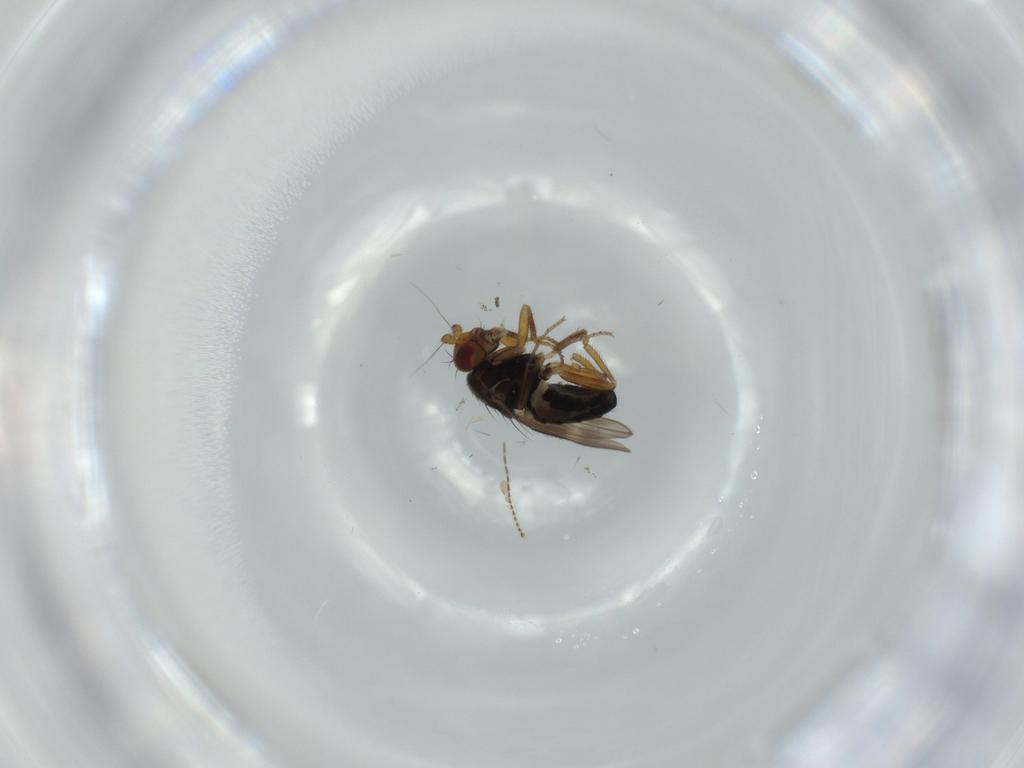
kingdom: Animalia
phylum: Arthropoda
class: Insecta
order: Diptera
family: Sphaeroceridae
